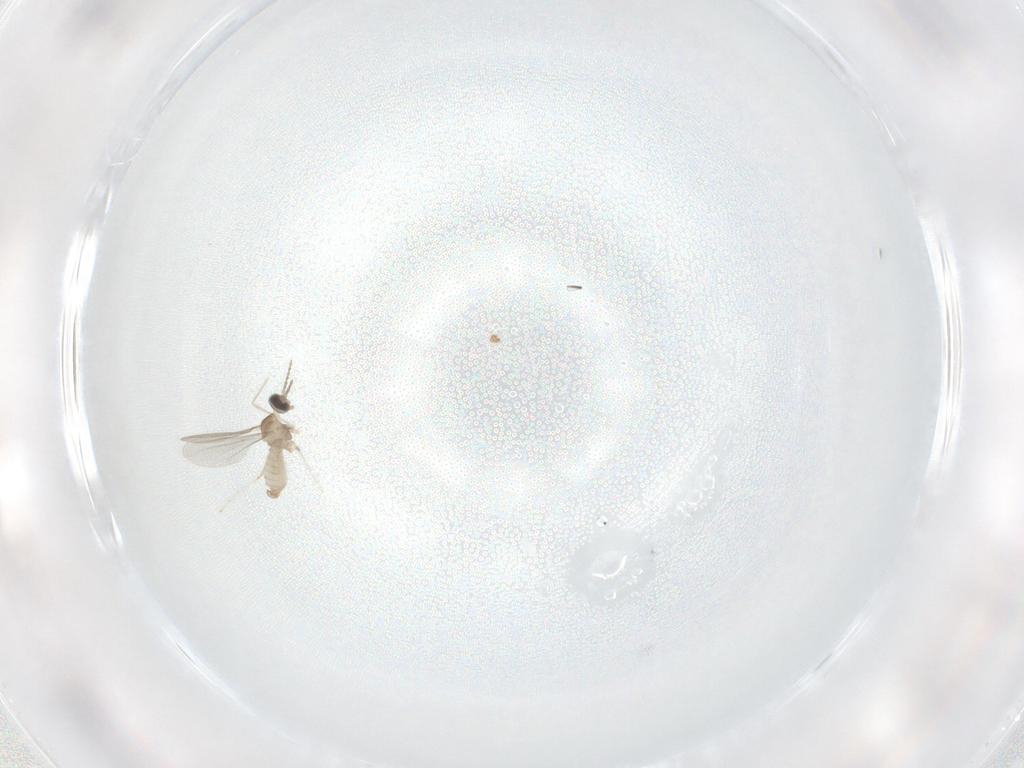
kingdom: Animalia
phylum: Arthropoda
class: Insecta
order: Diptera
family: Cecidomyiidae
